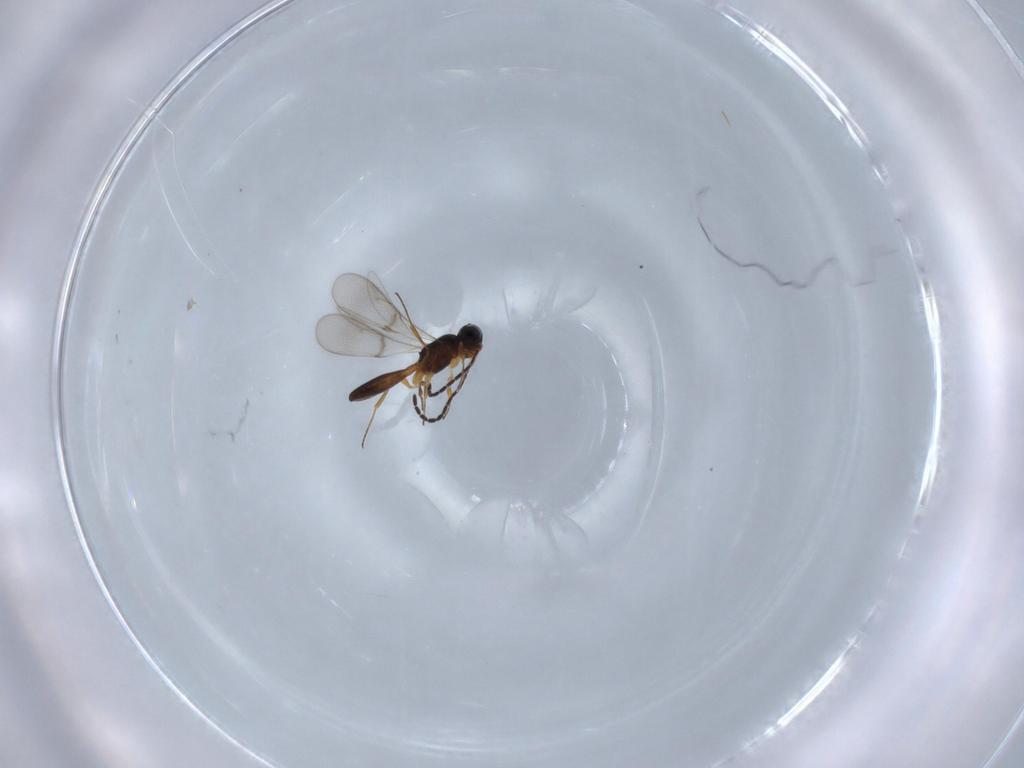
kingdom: Animalia
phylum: Arthropoda
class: Insecta
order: Hymenoptera
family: Scelionidae
